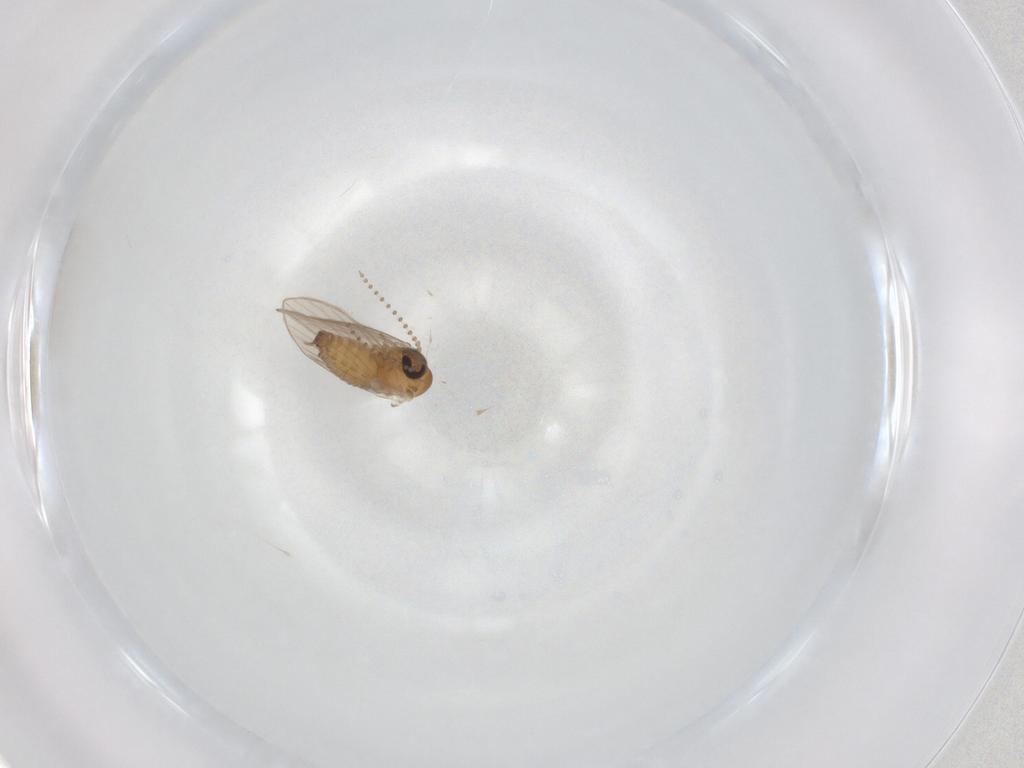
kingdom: Animalia
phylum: Arthropoda
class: Insecta
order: Diptera
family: Psychodidae
